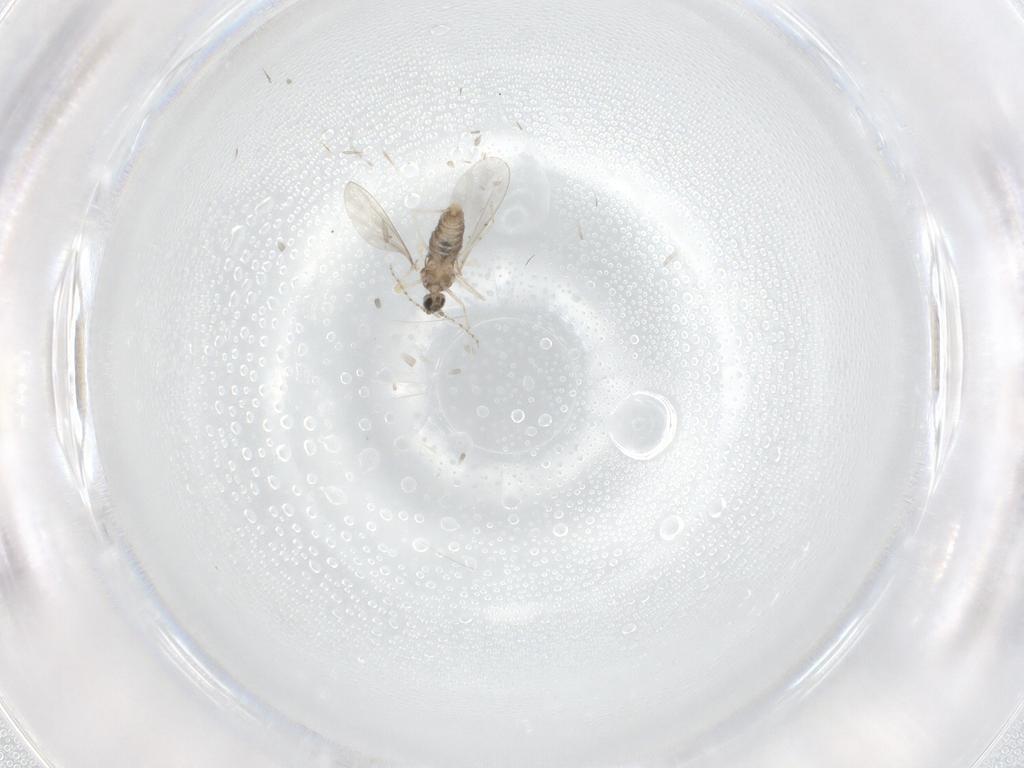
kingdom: Animalia
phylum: Arthropoda
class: Insecta
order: Diptera
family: Cecidomyiidae
